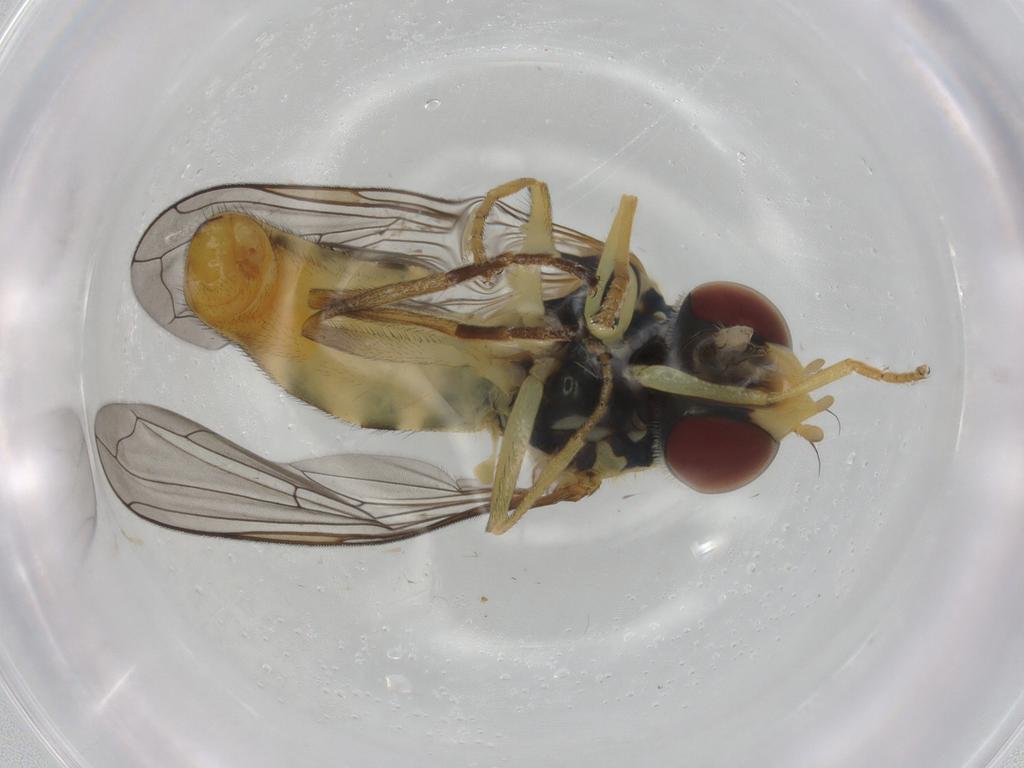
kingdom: Animalia
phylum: Arthropoda
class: Insecta
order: Diptera
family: Syrphidae
